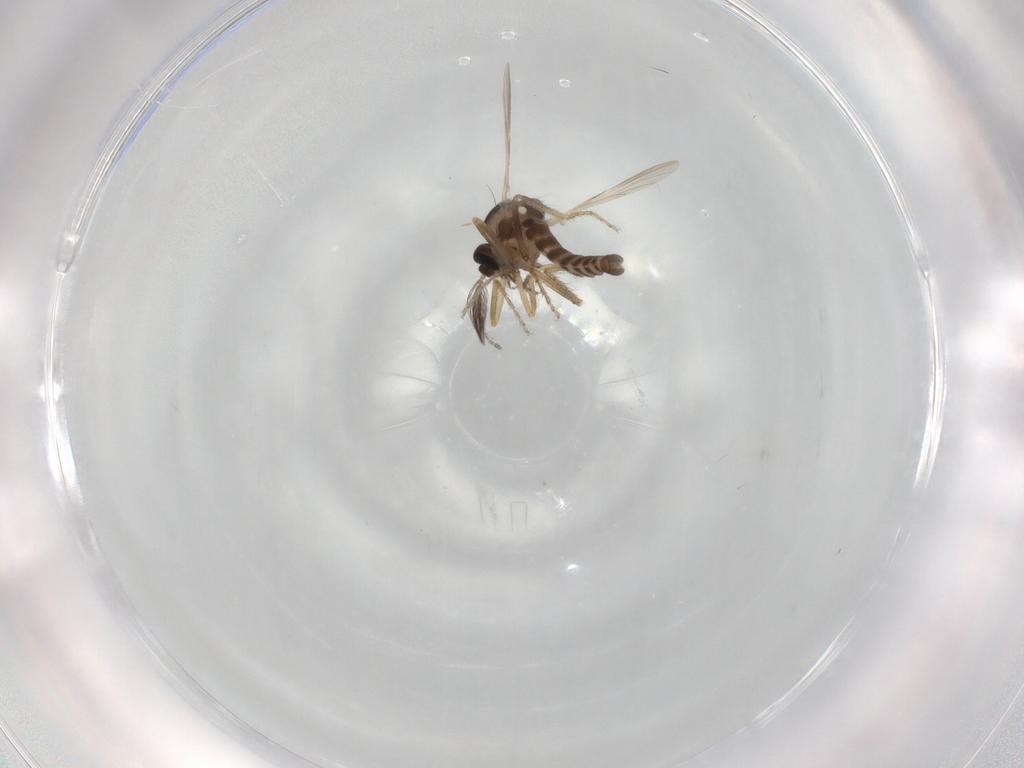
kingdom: Animalia
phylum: Arthropoda
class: Insecta
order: Diptera
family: Ceratopogonidae
